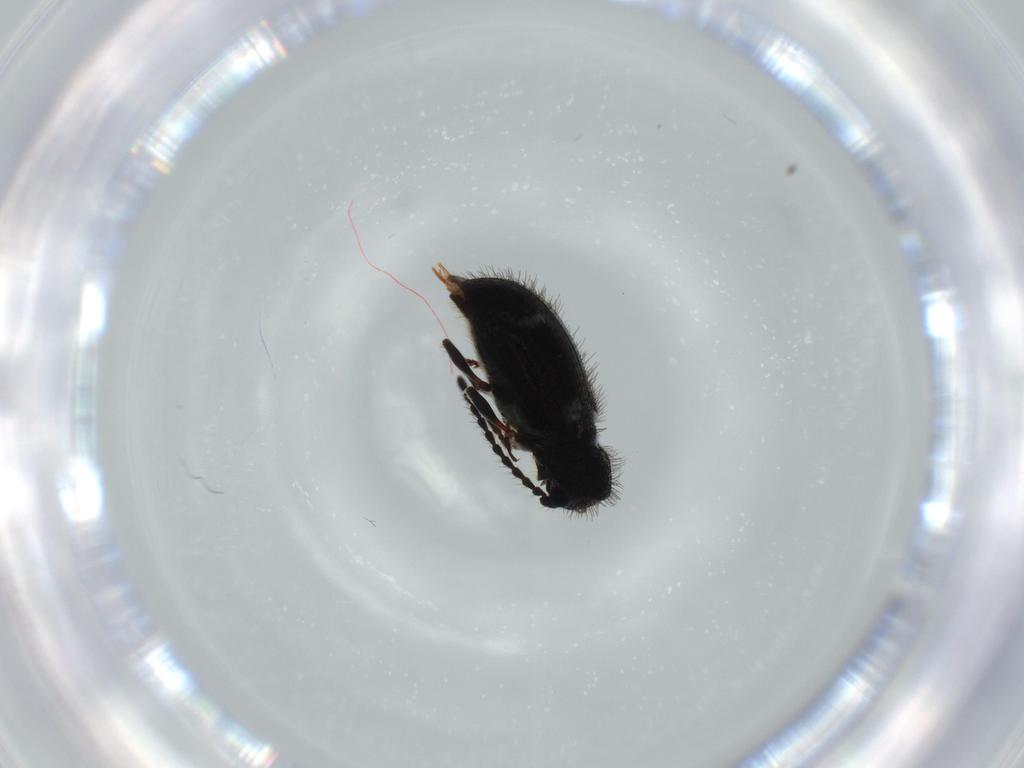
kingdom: Animalia
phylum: Arthropoda
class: Insecta
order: Coleoptera
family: Ptinidae
